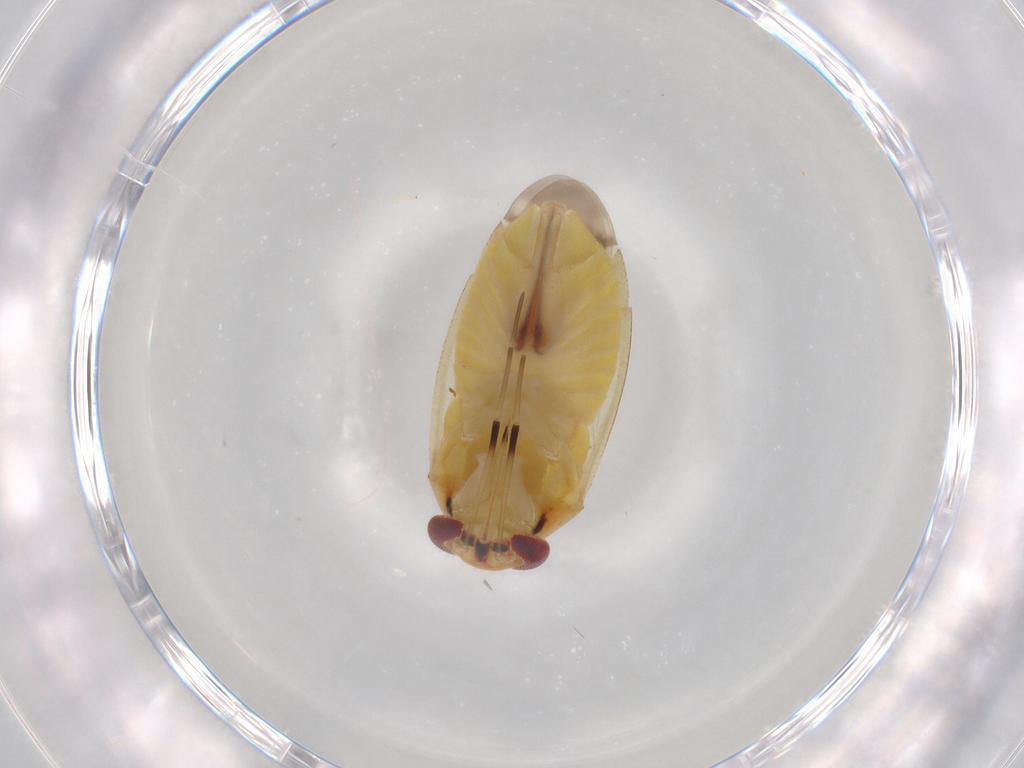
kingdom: Animalia
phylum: Arthropoda
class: Insecta
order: Hemiptera
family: Miridae
